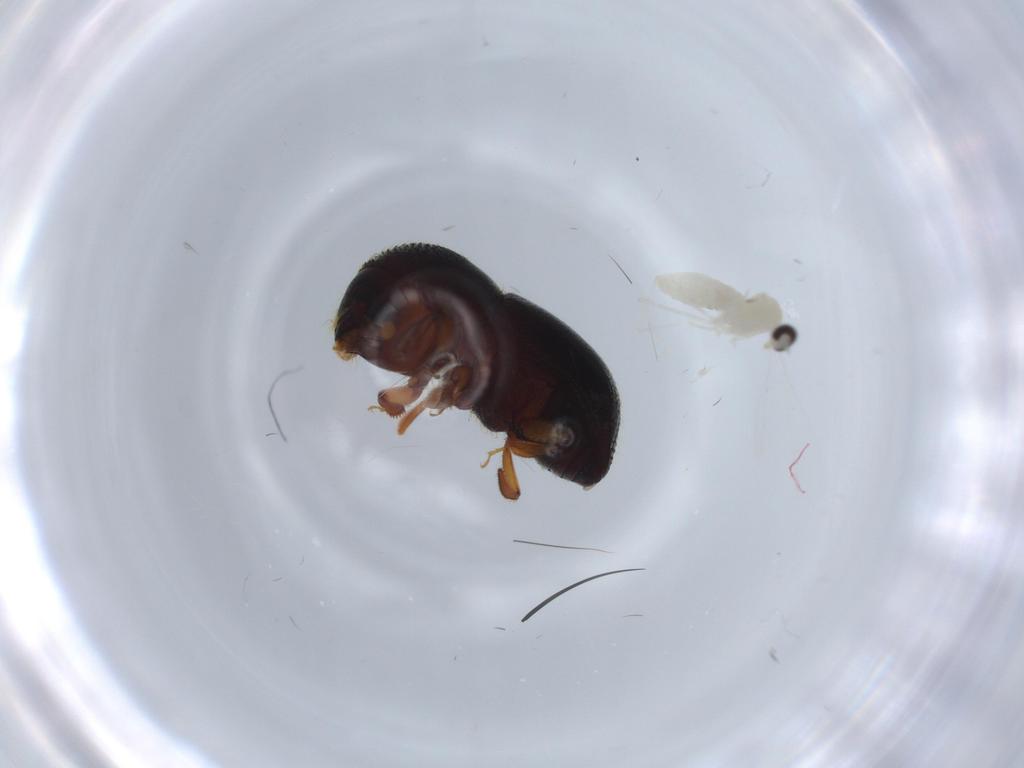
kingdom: Animalia
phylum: Arthropoda
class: Insecta
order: Diptera
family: Cecidomyiidae
